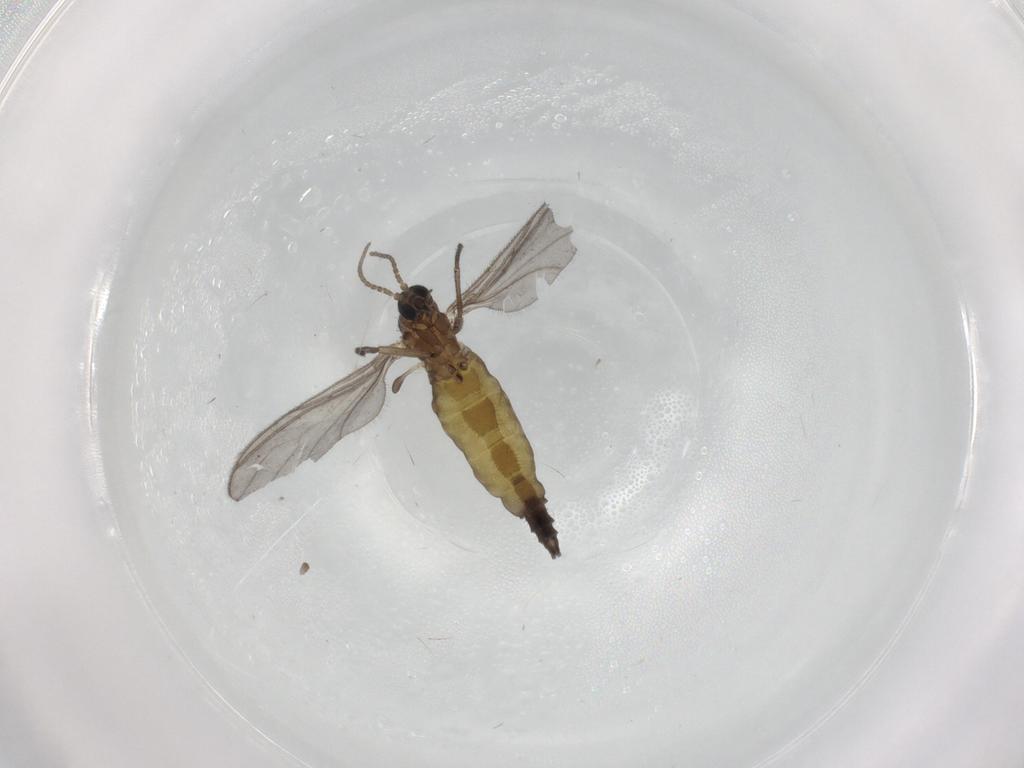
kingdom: Animalia
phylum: Arthropoda
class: Insecta
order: Diptera
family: Sciaridae
